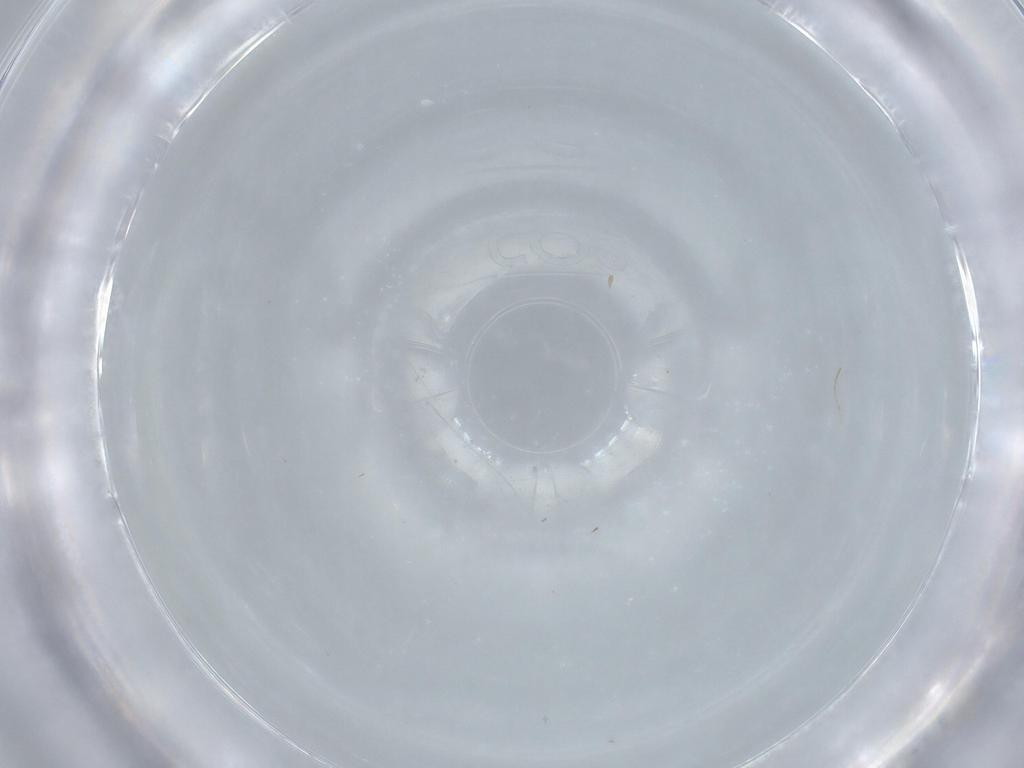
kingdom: Animalia
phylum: Arthropoda
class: Insecta
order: Diptera
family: Cecidomyiidae
